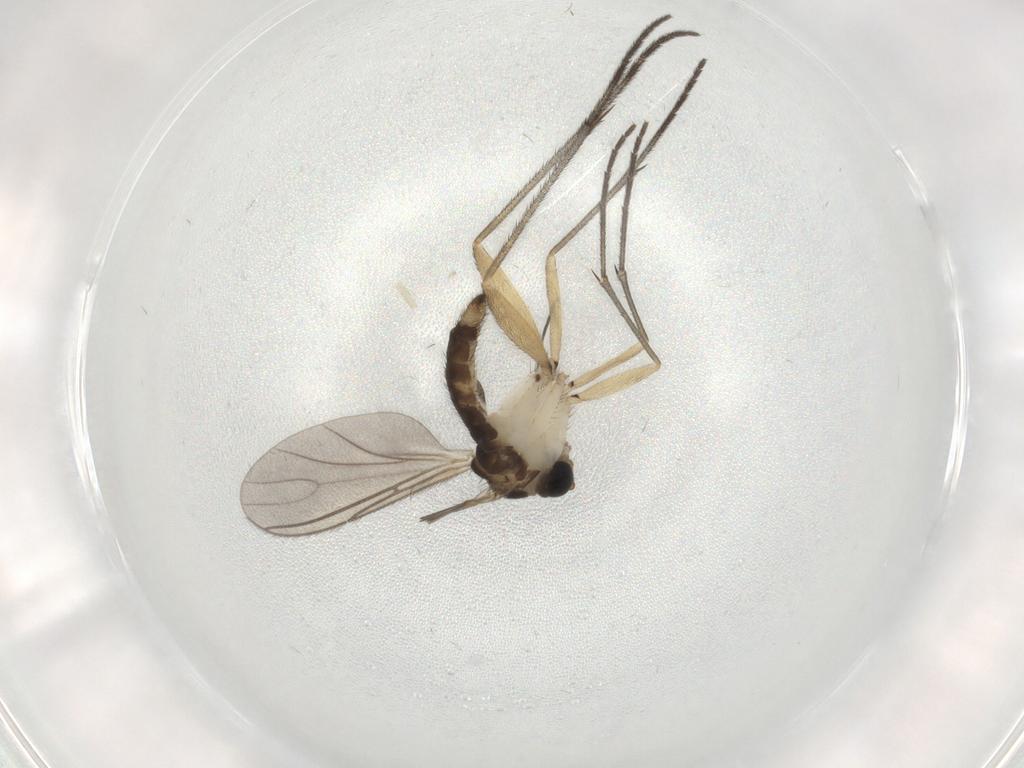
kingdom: Animalia
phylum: Arthropoda
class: Insecta
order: Diptera
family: Sciaridae
